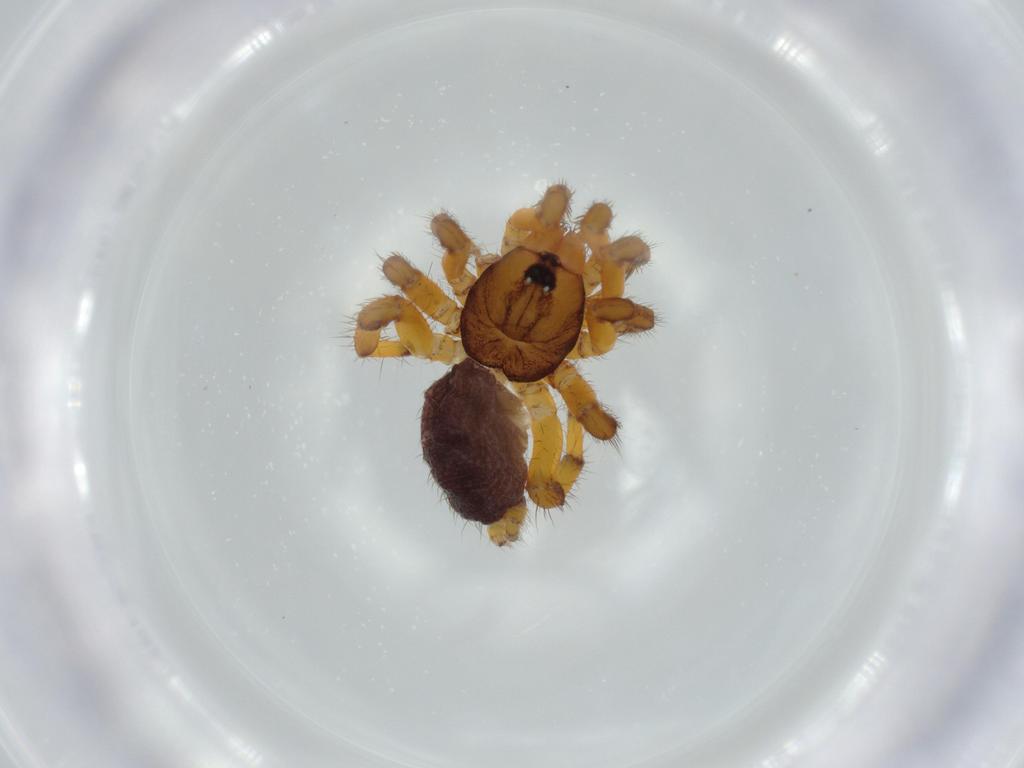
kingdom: Animalia
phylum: Arthropoda
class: Arachnida
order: Araneae
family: Theraphosidae
